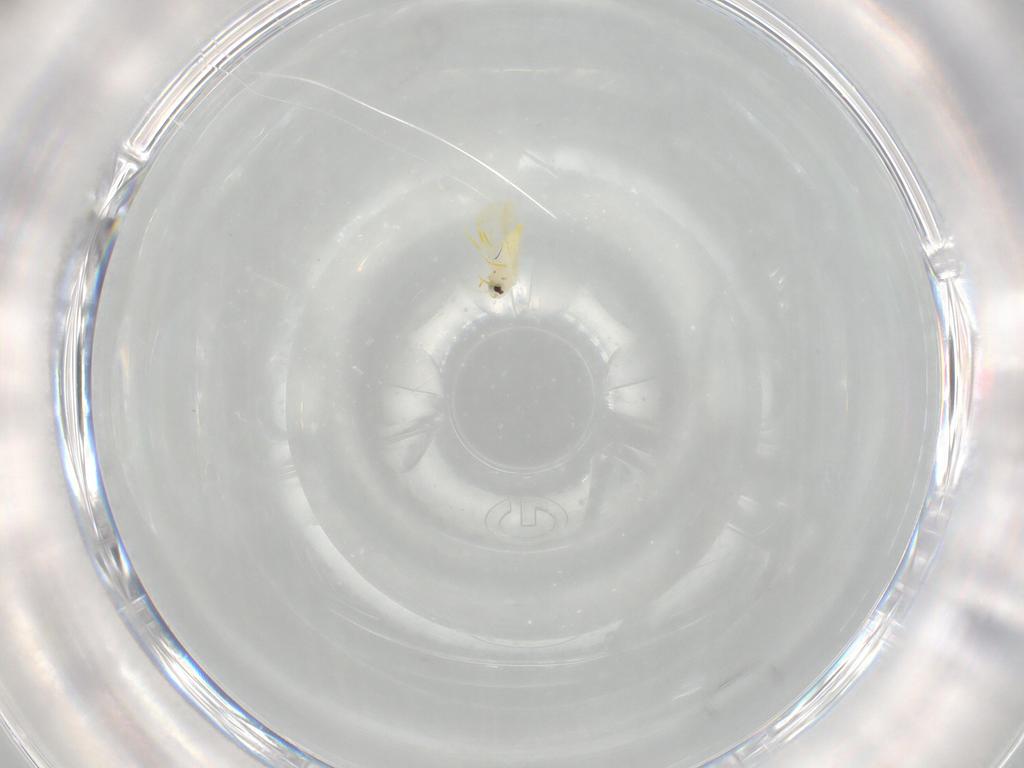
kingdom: Animalia
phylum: Arthropoda
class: Insecta
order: Hemiptera
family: Aleyrodidae
